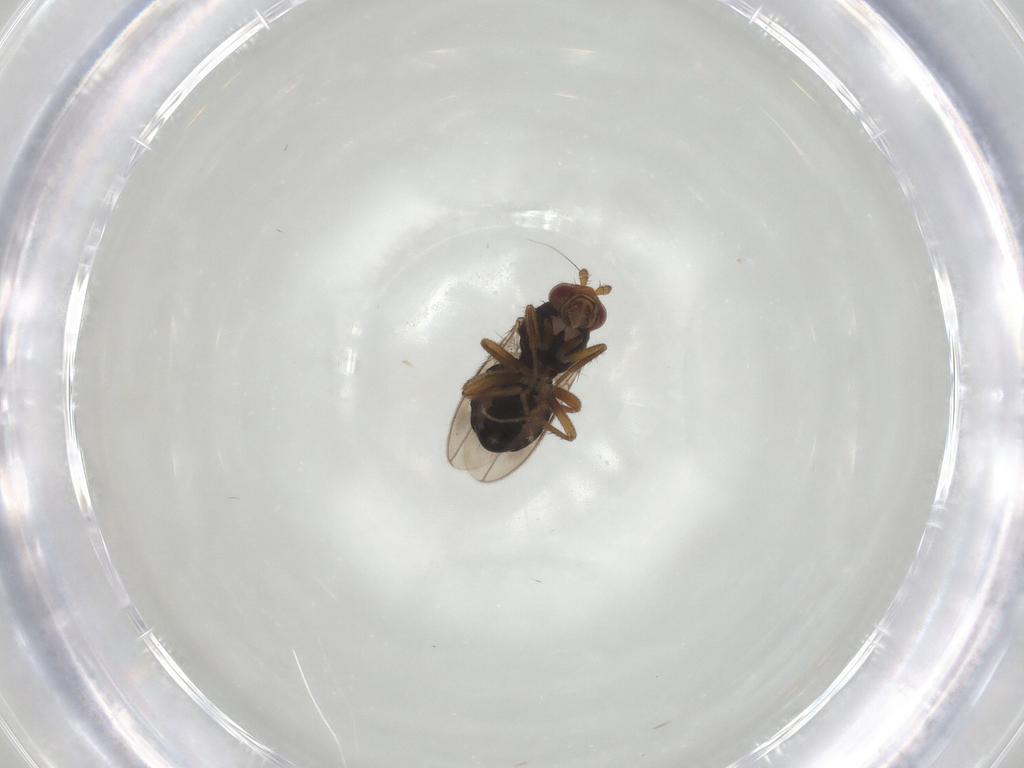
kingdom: Animalia
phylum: Arthropoda
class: Insecta
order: Diptera
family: Sphaeroceridae
